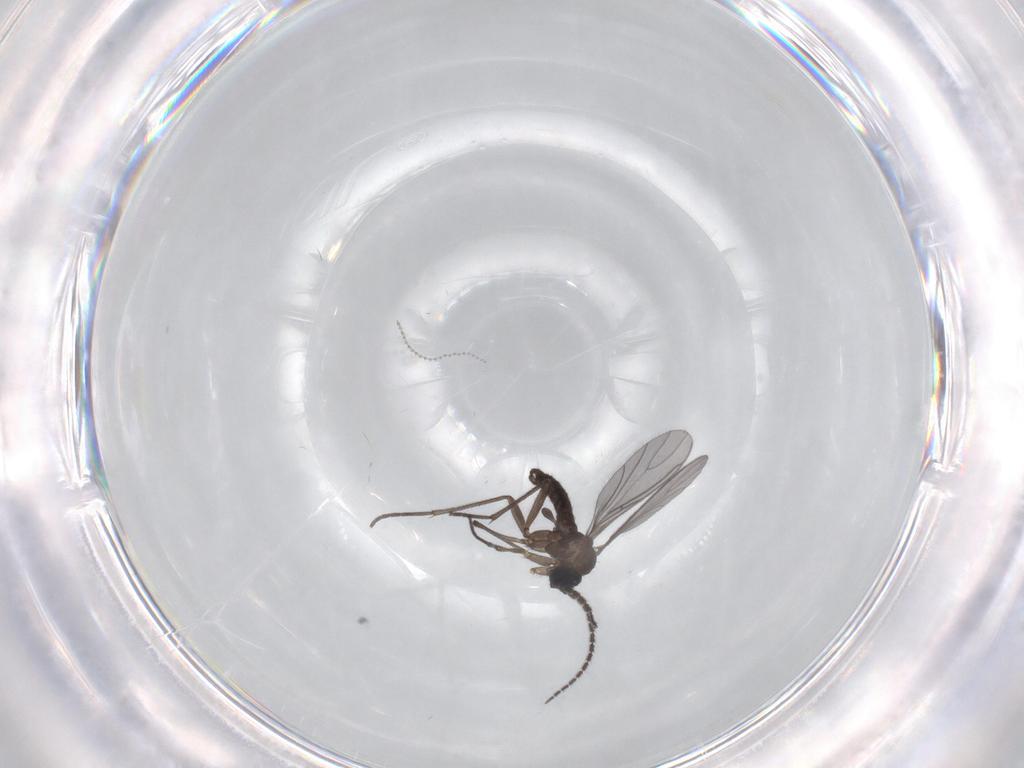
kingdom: Animalia
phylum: Arthropoda
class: Insecta
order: Diptera
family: Sciaridae
